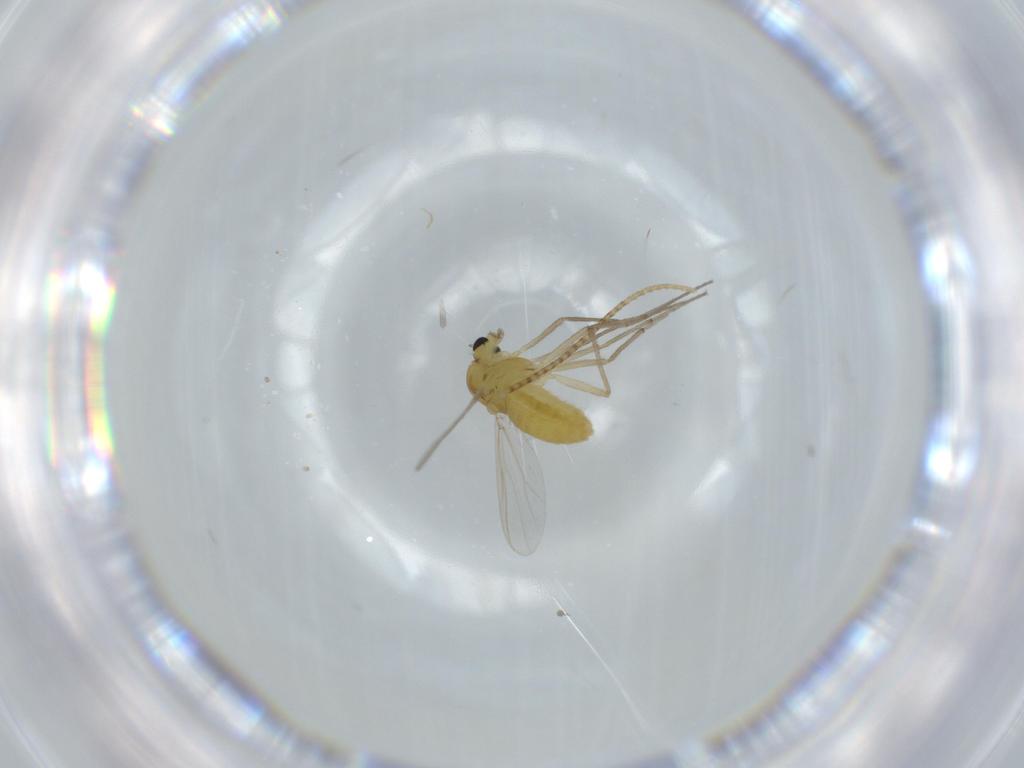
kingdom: Animalia
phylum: Arthropoda
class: Insecta
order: Diptera
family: Chironomidae
